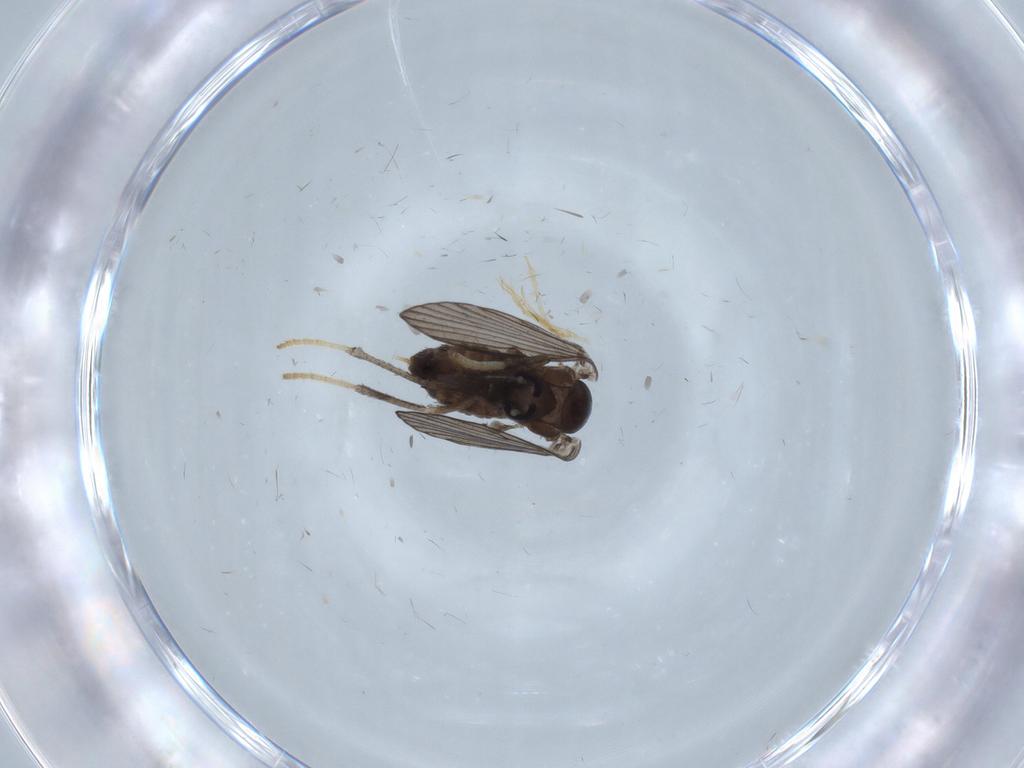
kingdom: Animalia
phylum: Arthropoda
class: Insecta
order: Diptera
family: Psychodidae
